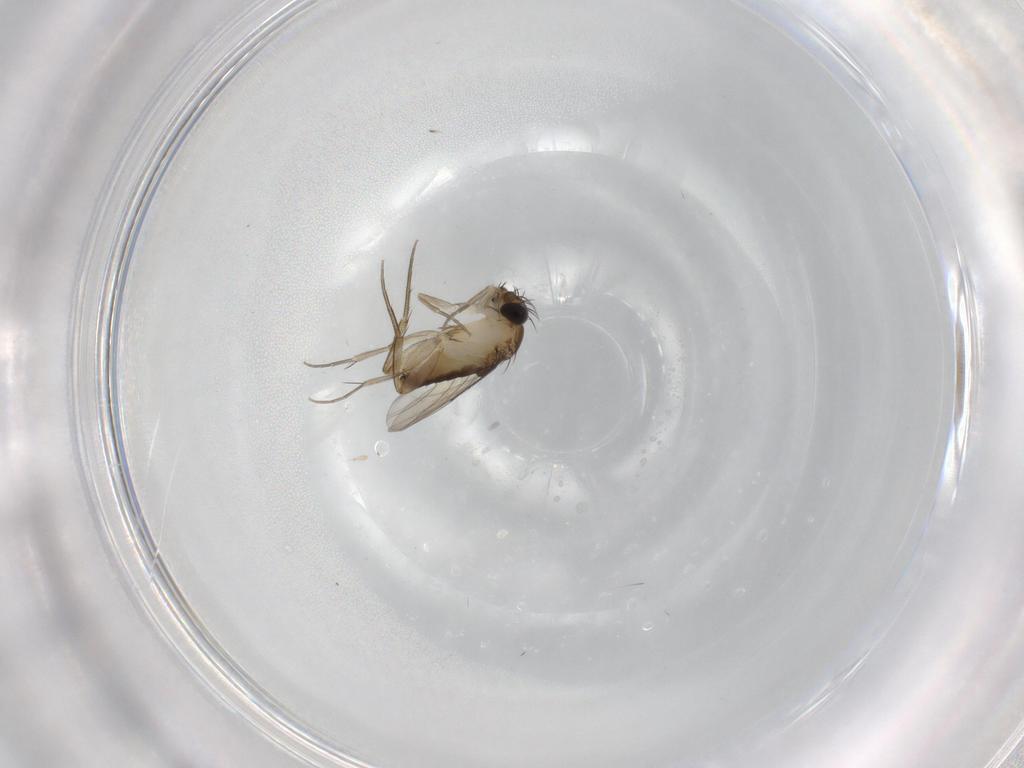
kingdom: Animalia
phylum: Arthropoda
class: Insecta
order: Diptera
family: Phoridae
